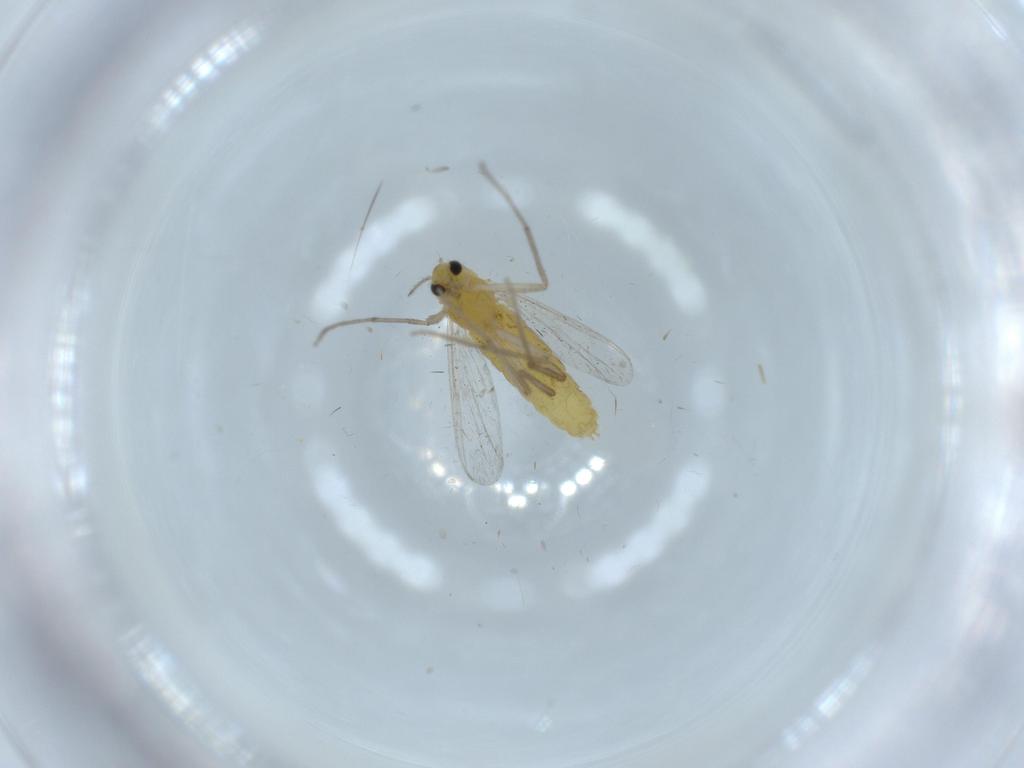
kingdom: Animalia
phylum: Arthropoda
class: Insecta
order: Diptera
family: Chironomidae
